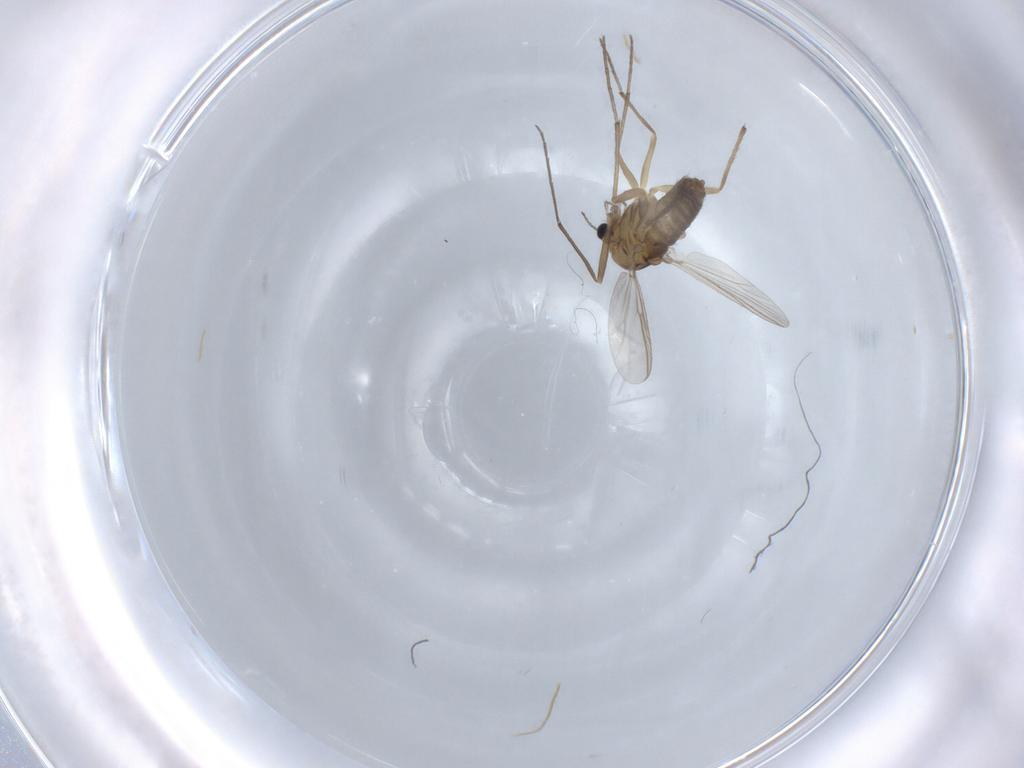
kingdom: Animalia
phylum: Arthropoda
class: Insecta
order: Diptera
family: Chironomidae
